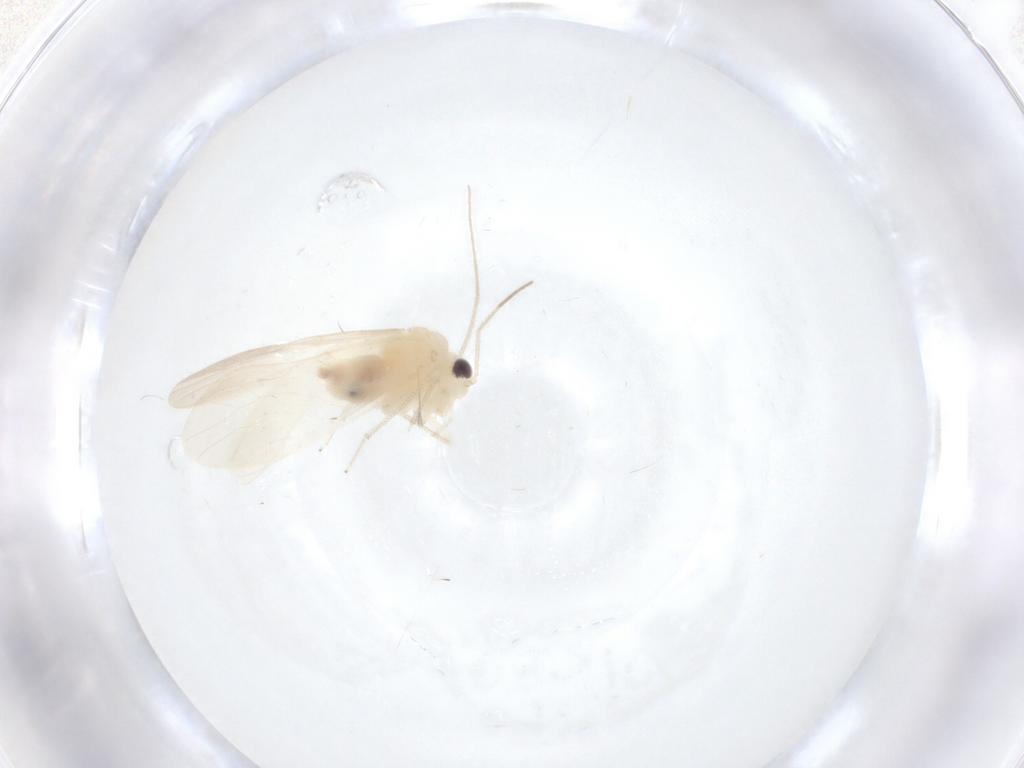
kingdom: Animalia
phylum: Arthropoda
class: Insecta
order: Psocodea
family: Caeciliusidae
